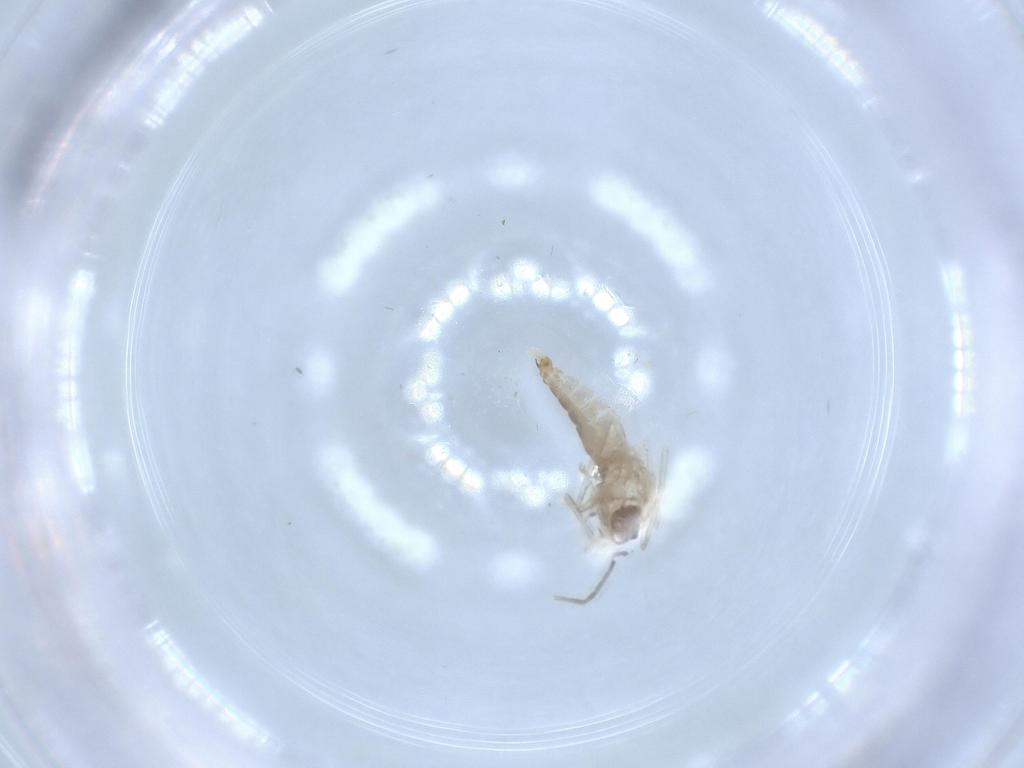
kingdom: Animalia
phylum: Arthropoda
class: Insecta
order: Diptera
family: Cecidomyiidae
